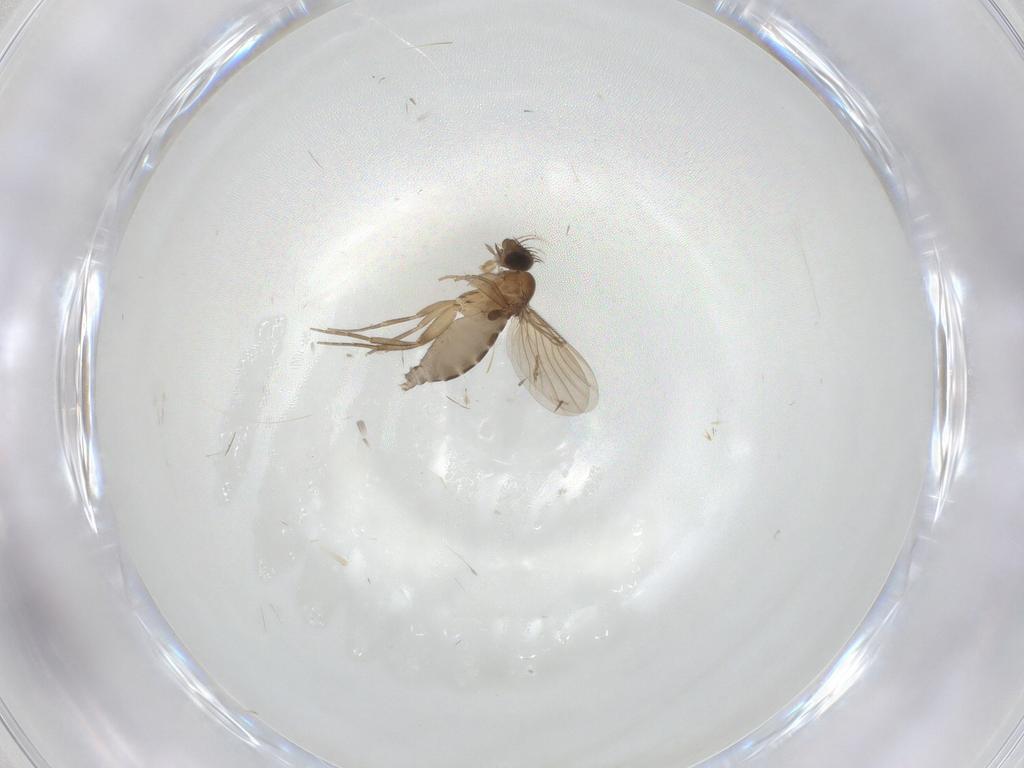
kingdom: Animalia
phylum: Arthropoda
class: Insecta
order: Diptera
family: Phoridae
